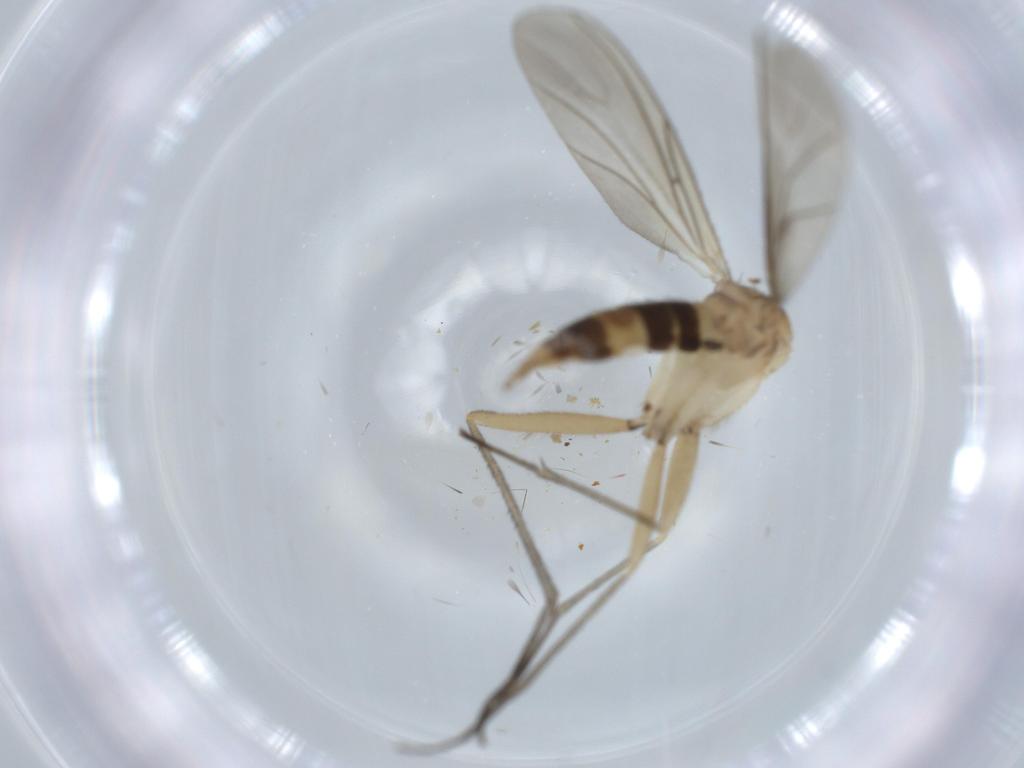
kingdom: Animalia
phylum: Arthropoda
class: Insecta
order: Diptera
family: Sciaridae
